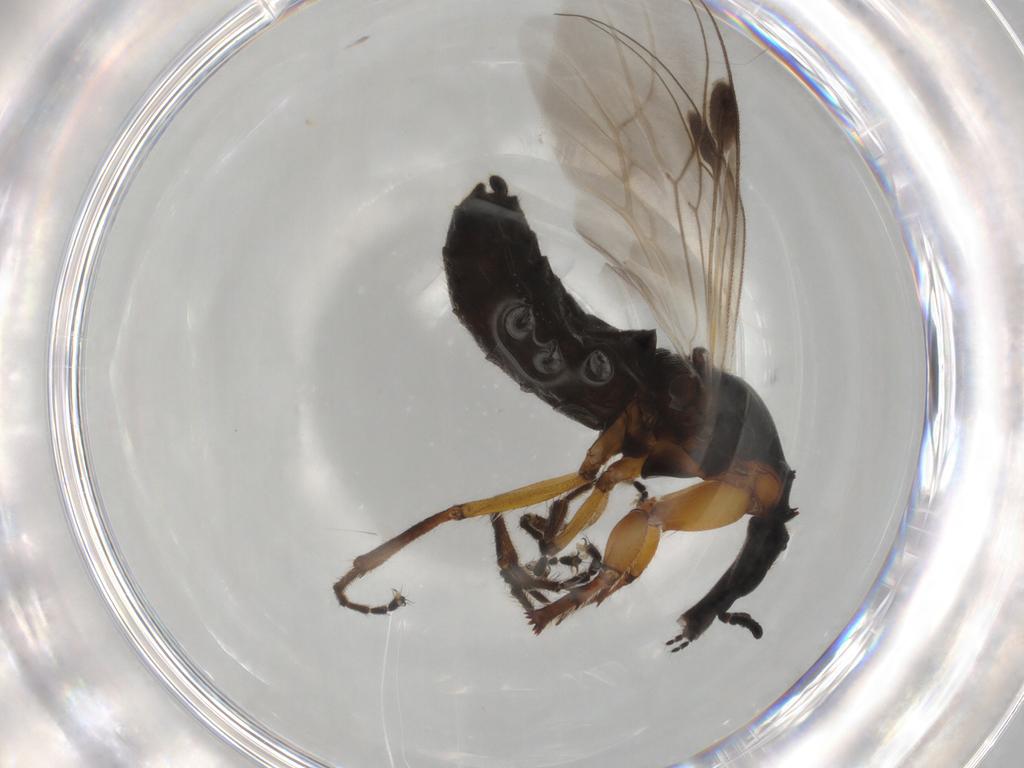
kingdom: Animalia
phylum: Arthropoda
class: Insecta
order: Diptera
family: Bibionidae
